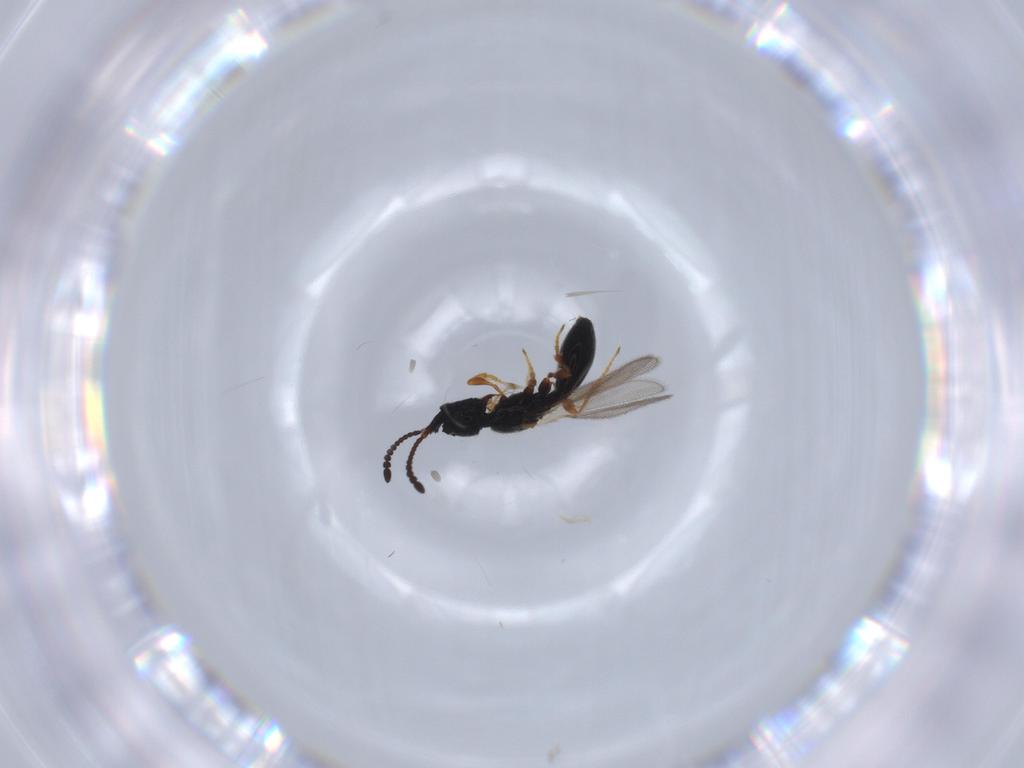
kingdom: Animalia
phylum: Arthropoda
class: Insecta
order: Hymenoptera
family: Diapriidae
